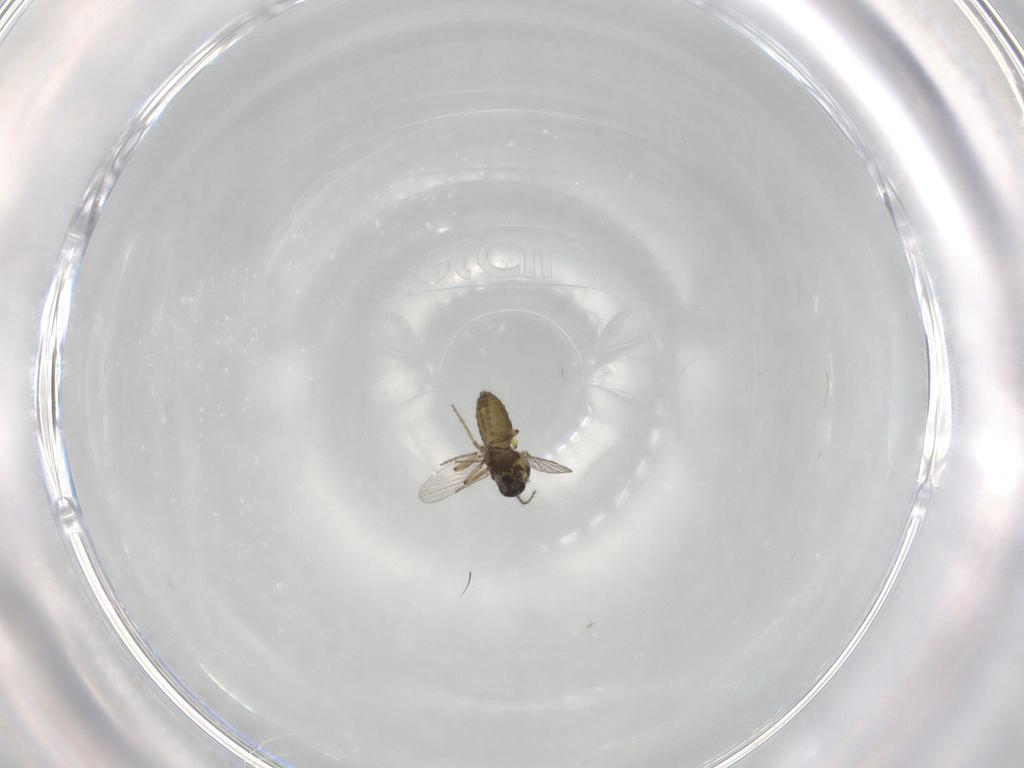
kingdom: Animalia
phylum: Arthropoda
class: Insecta
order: Diptera
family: Ceratopogonidae
